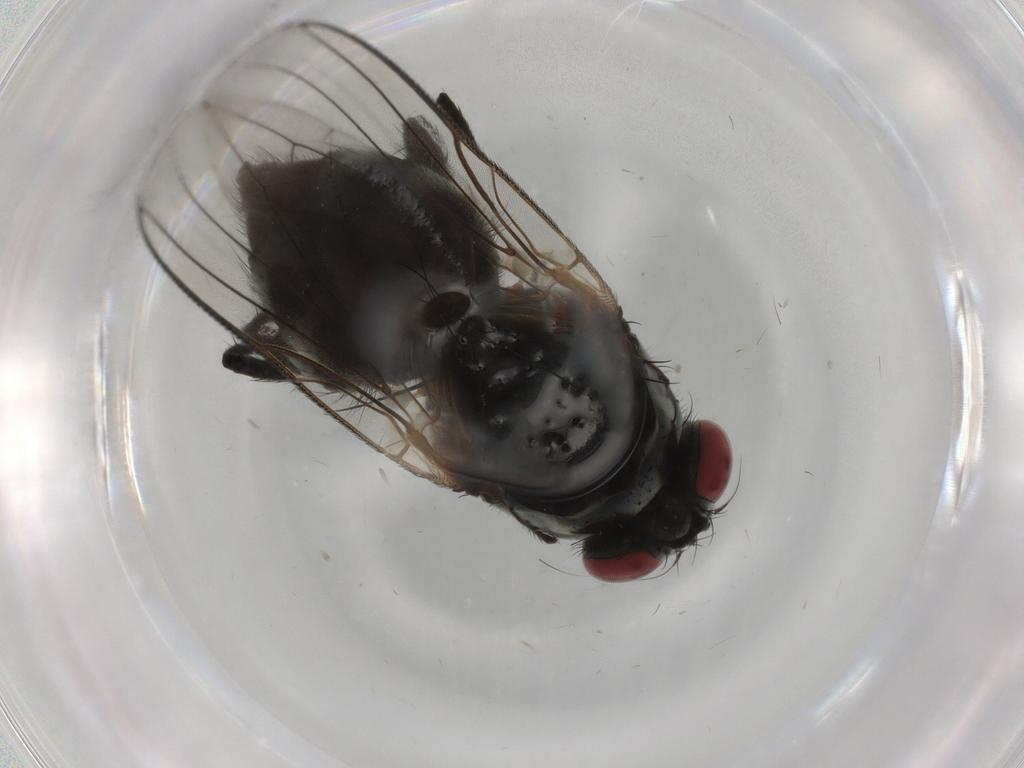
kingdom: Animalia
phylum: Arthropoda
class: Insecta
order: Diptera
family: Anthomyiidae
